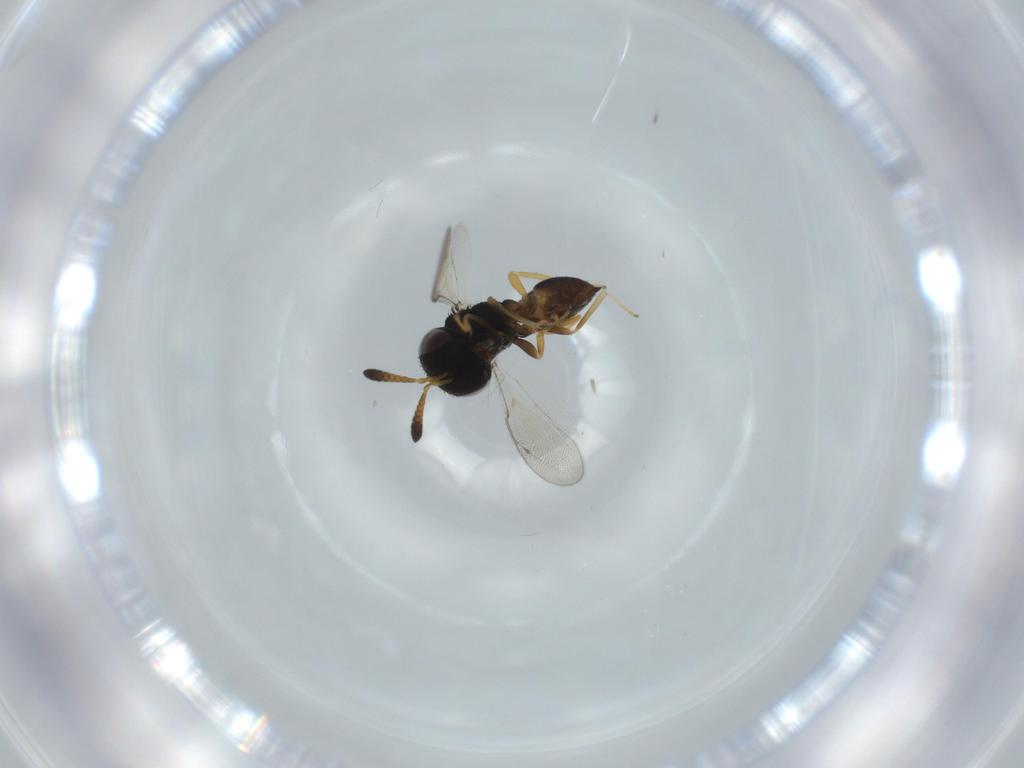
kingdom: Animalia
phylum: Arthropoda
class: Insecta
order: Hymenoptera
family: Pteromalidae
